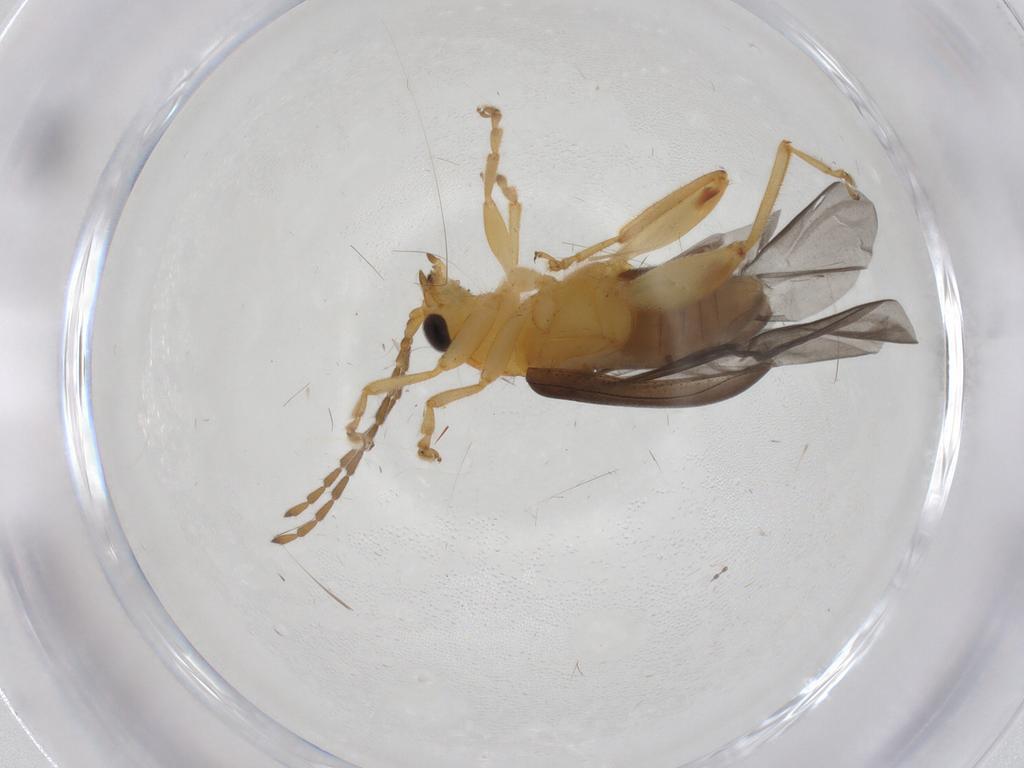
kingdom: Animalia
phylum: Arthropoda
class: Insecta
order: Coleoptera
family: Chrysomelidae
